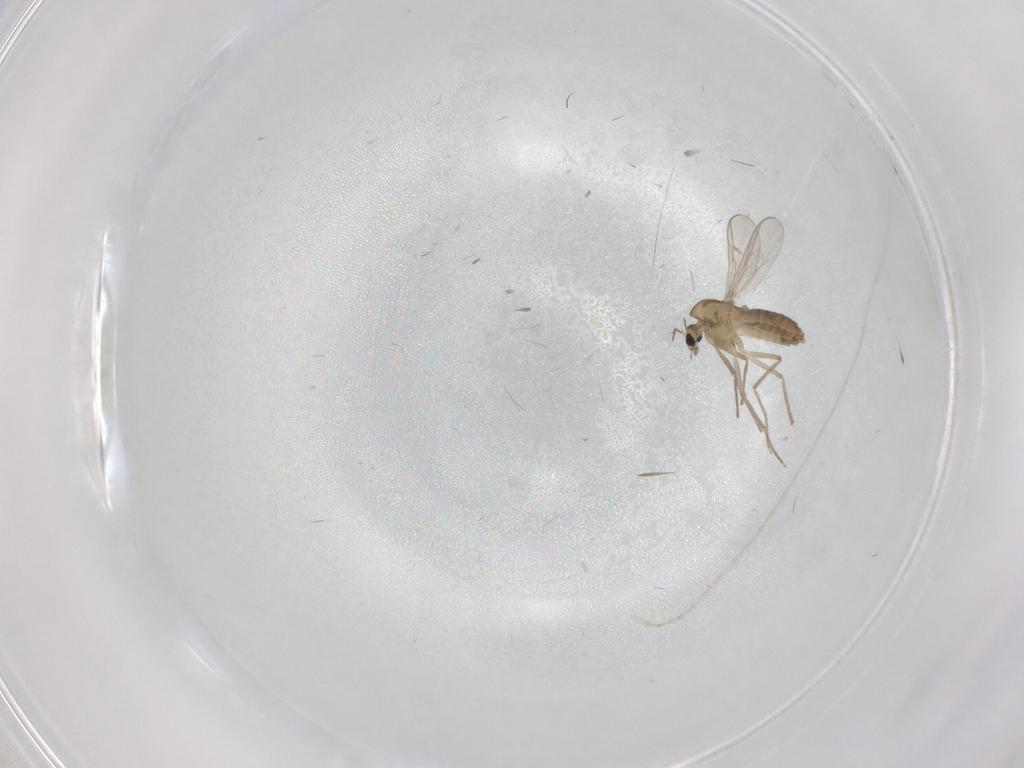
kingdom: Animalia
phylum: Arthropoda
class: Insecta
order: Diptera
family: Chironomidae
